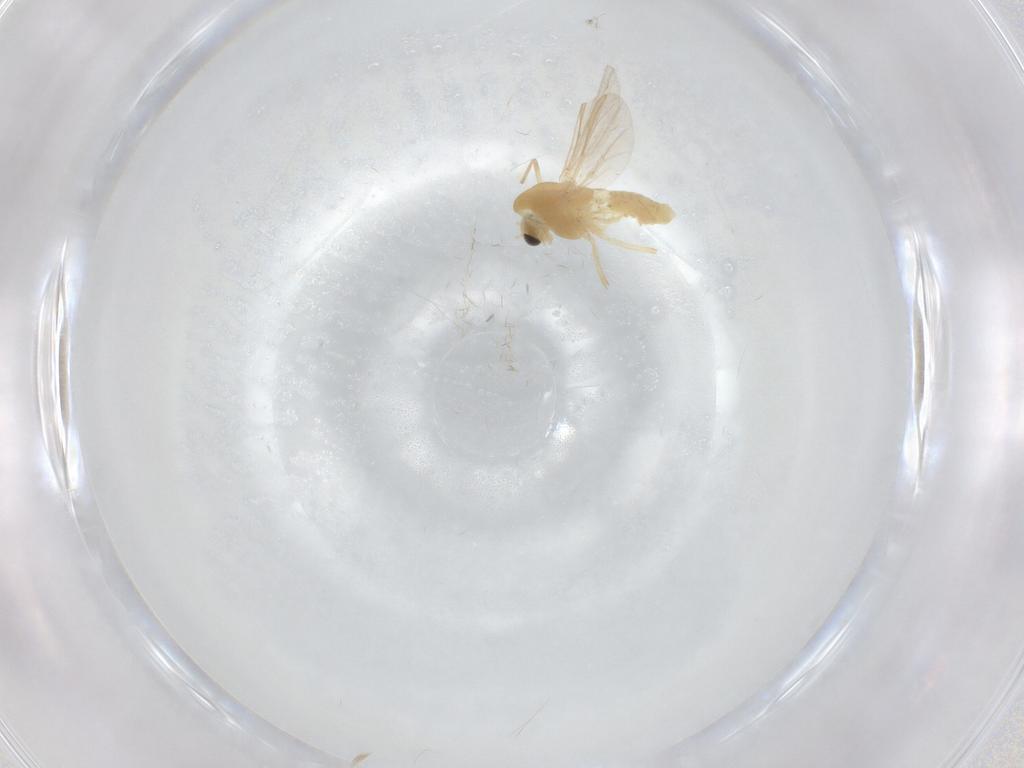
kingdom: Animalia
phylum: Arthropoda
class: Insecta
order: Diptera
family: Chironomidae
